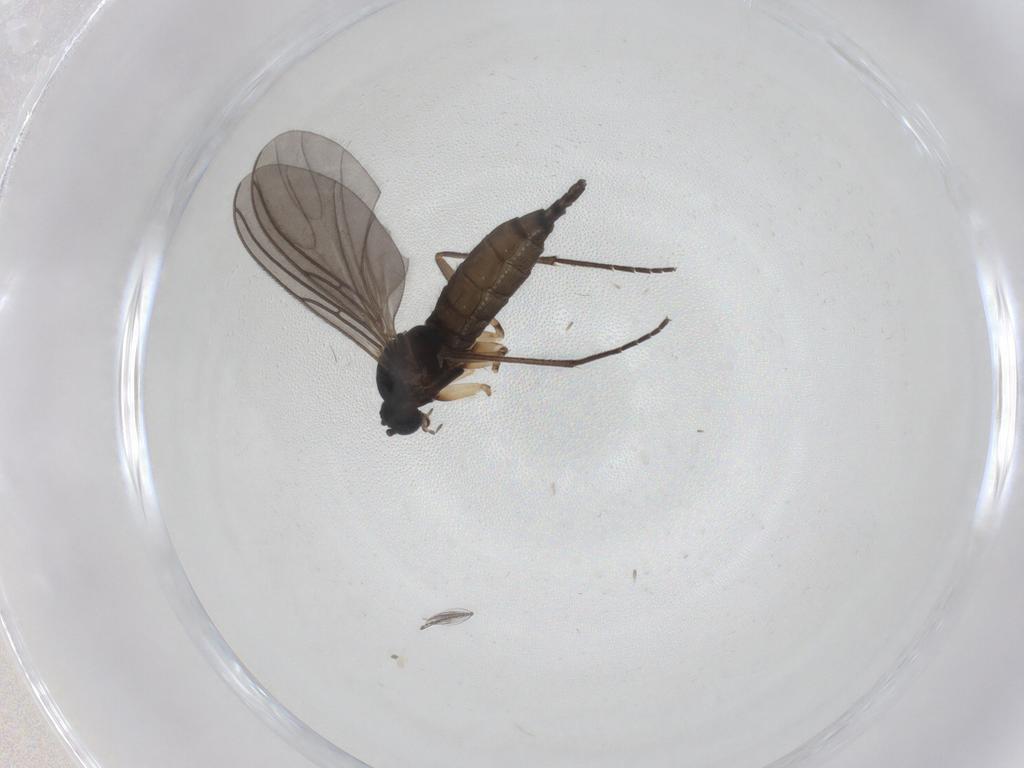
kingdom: Animalia
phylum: Arthropoda
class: Insecta
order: Diptera
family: Sciaridae
